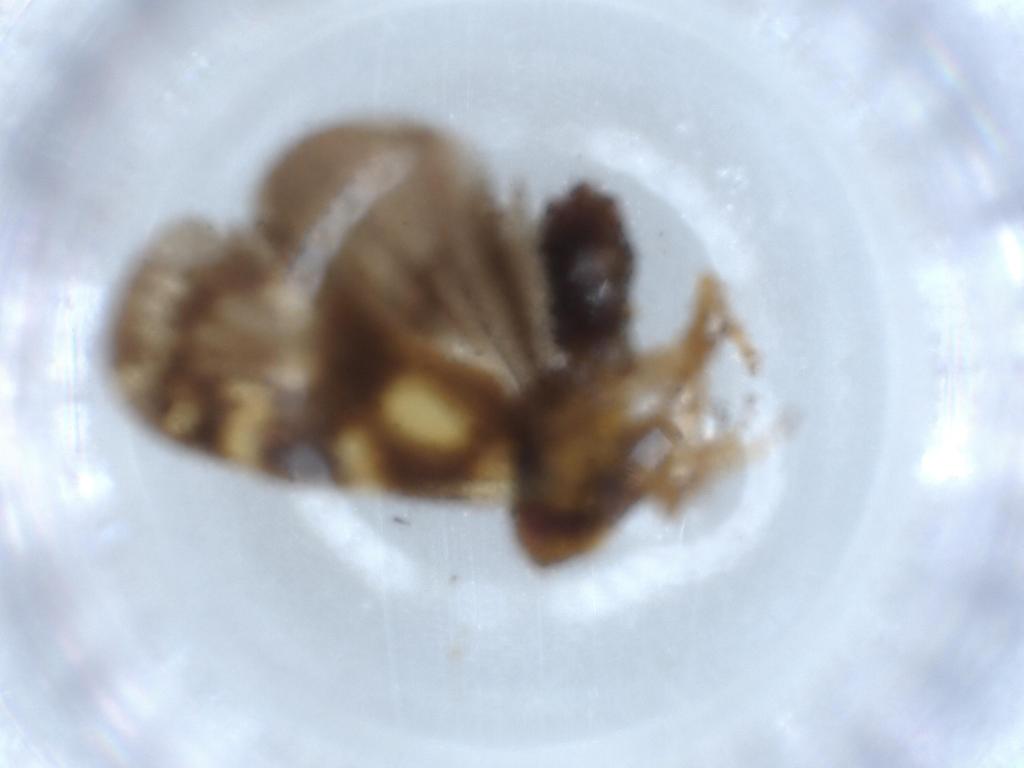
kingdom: Animalia
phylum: Arthropoda
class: Insecta
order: Hemiptera
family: Cixiidae
